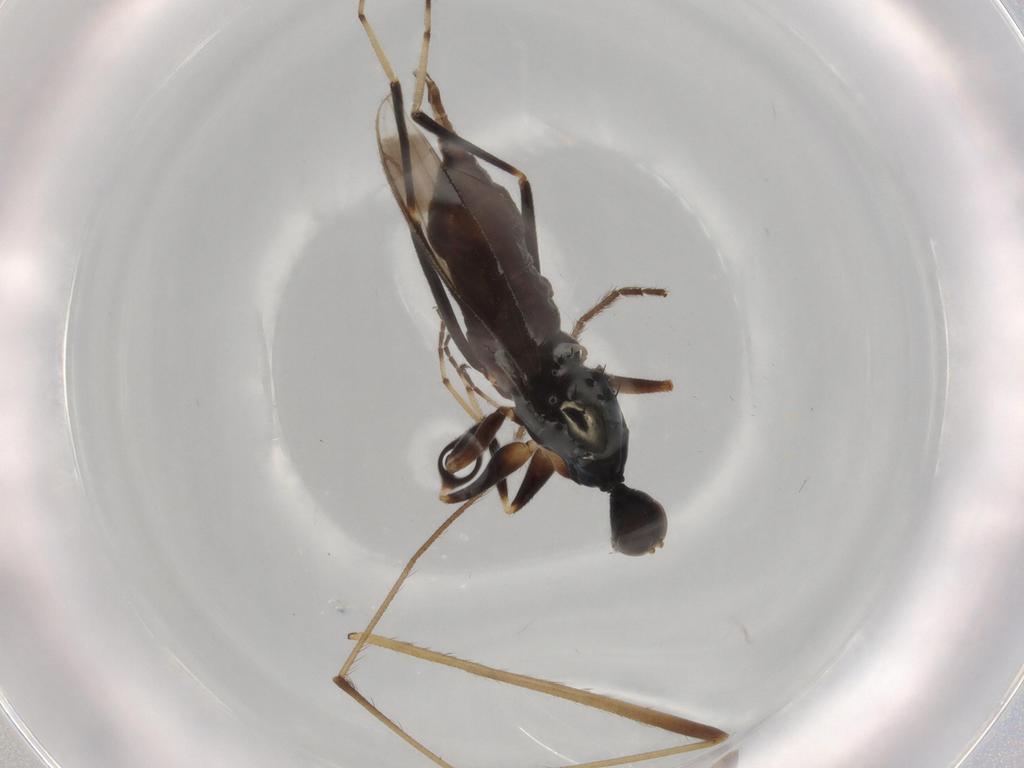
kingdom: Animalia
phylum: Arthropoda
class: Insecta
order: Diptera
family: Hybotidae
